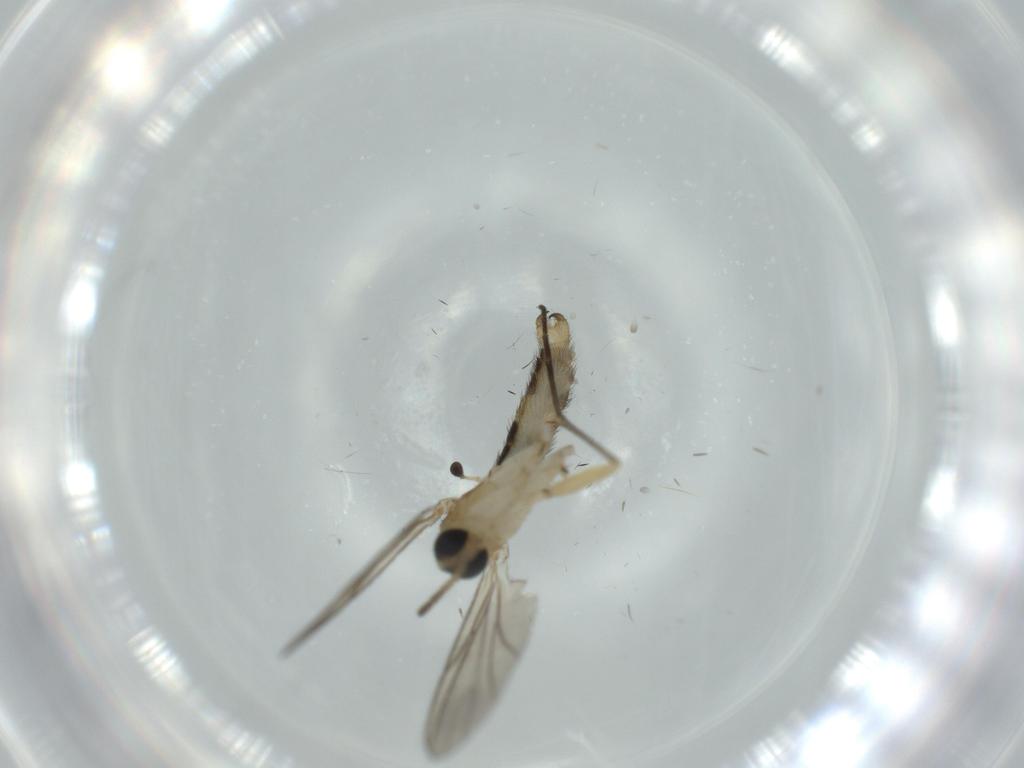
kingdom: Animalia
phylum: Arthropoda
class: Insecta
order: Diptera
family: Sciaridae
